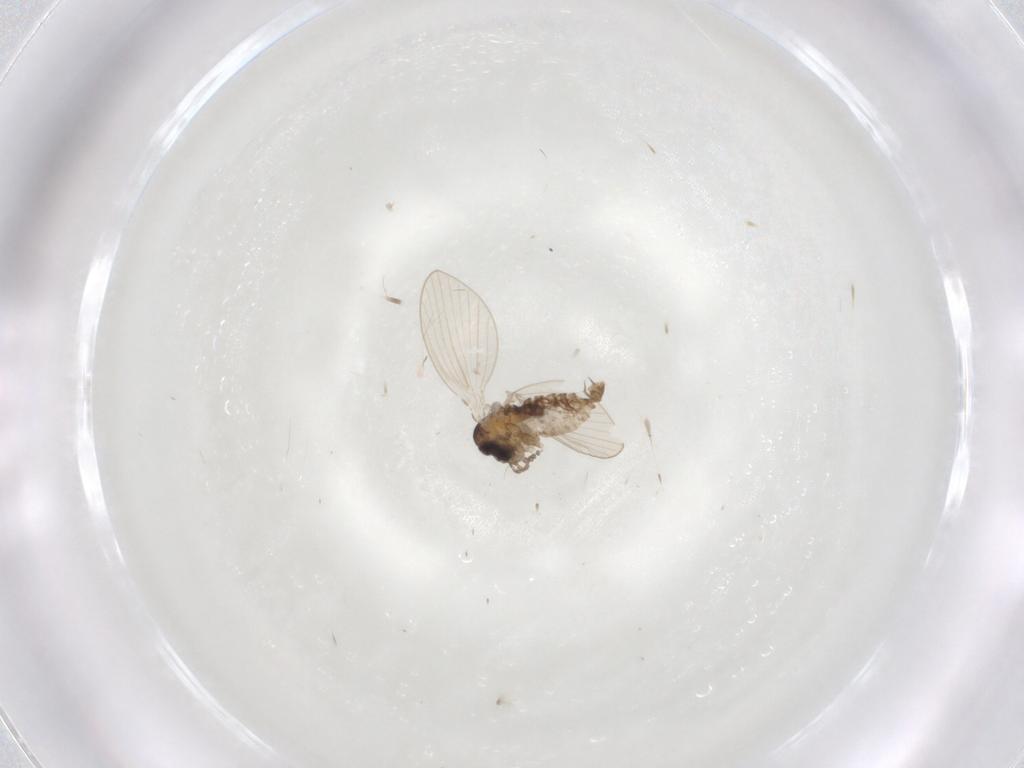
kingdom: Animalia
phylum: Arthropoda
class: Insecta
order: Diptera
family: Psychodidae
